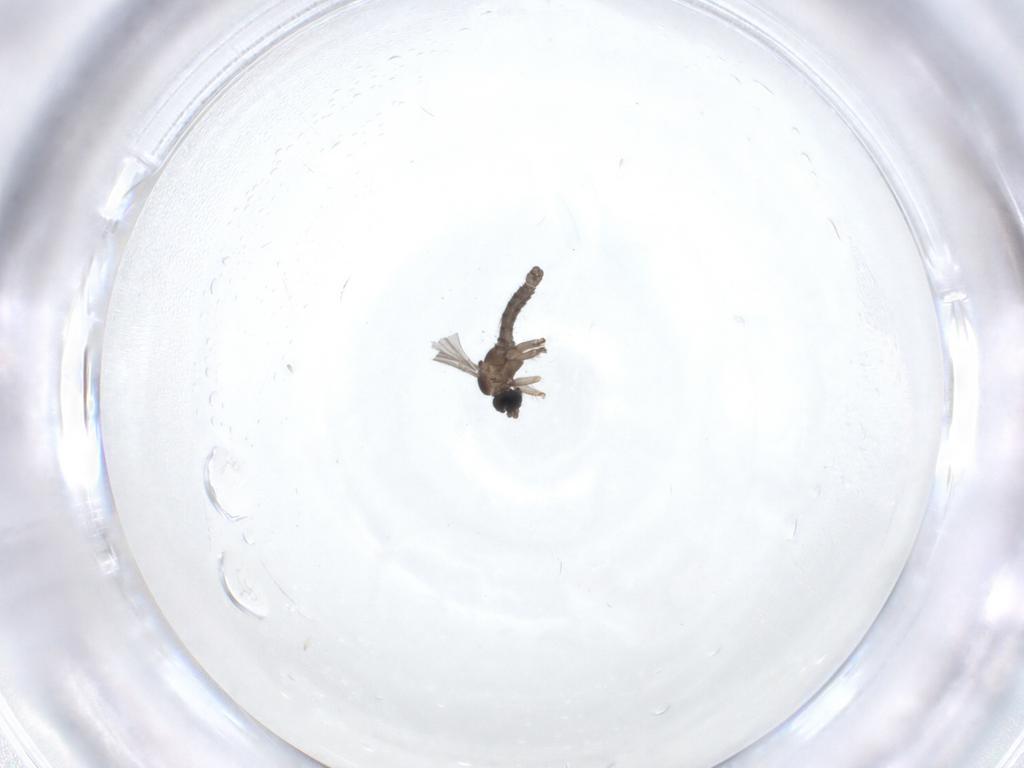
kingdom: Animalia
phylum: Arthropoda
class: Insecta
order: Diptera
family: Sciaridae
